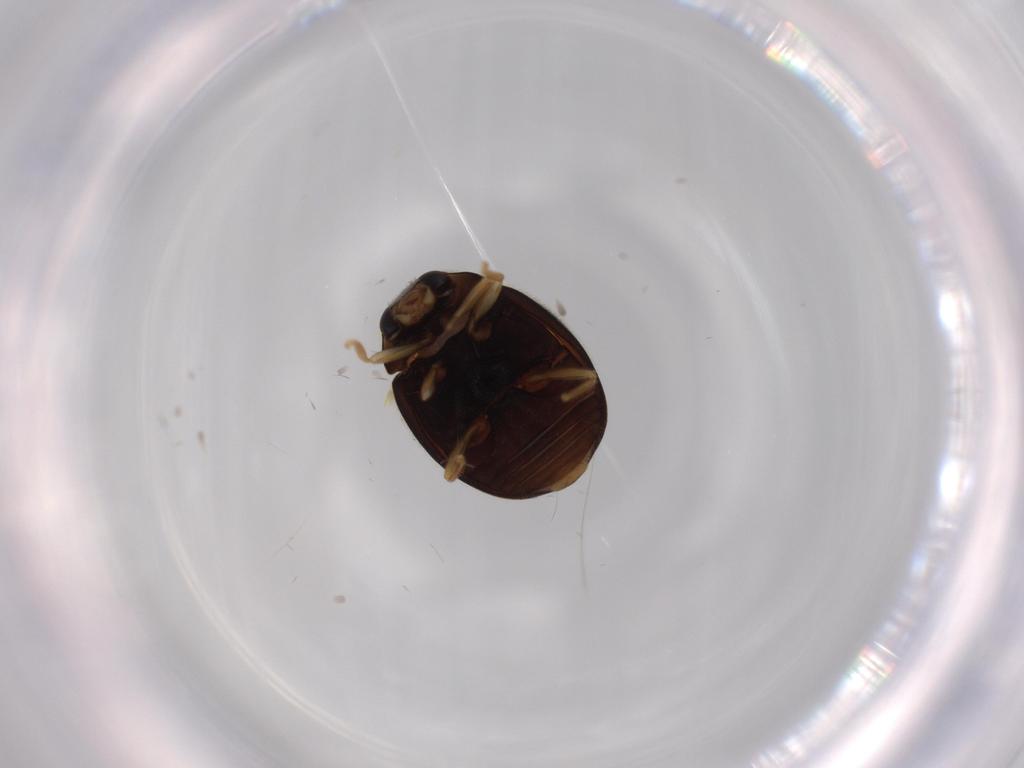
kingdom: Animalia
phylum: Arthropoda
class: Insecta
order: Coleoptera
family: Coccinellidae
